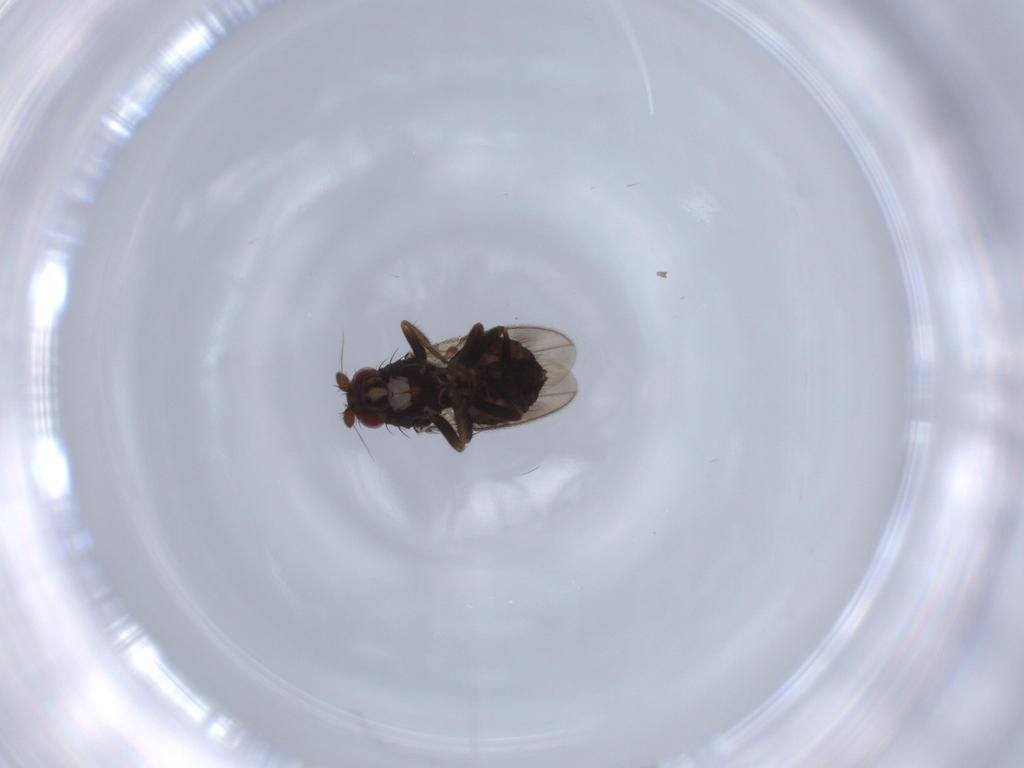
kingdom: Animalia
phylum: Arthropoda
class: Insecta
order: Diptera
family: Sphaeroceridae
